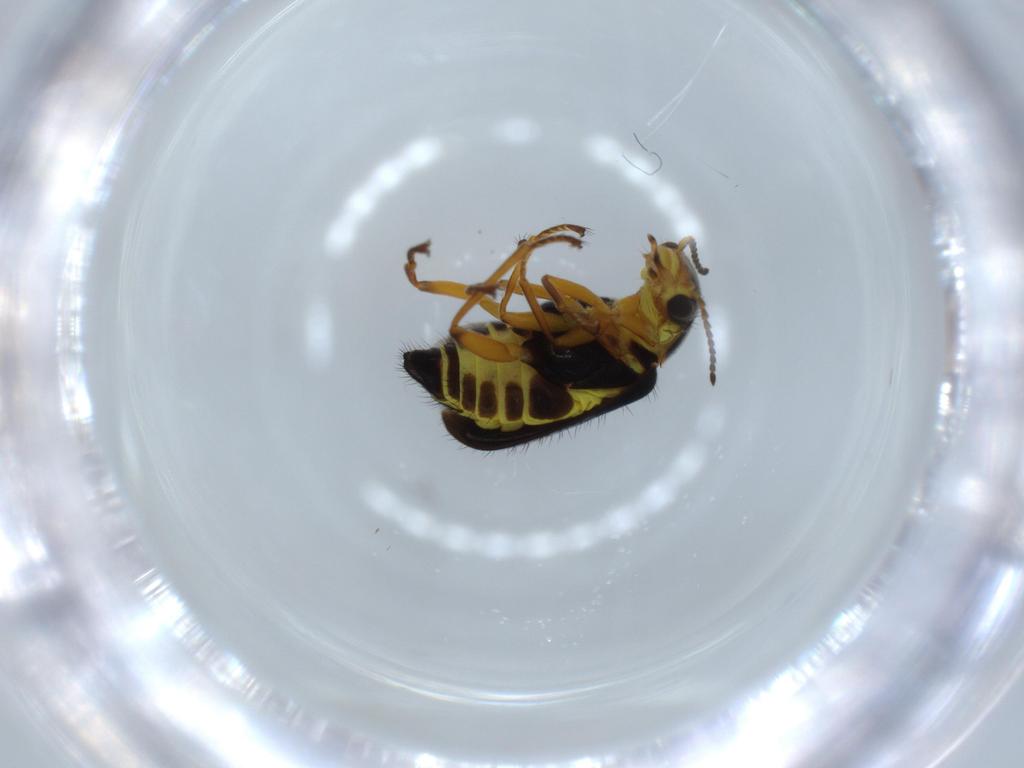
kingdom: Animalia
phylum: Arthropoda
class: Insecta
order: Coleoptera
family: Melyridae
